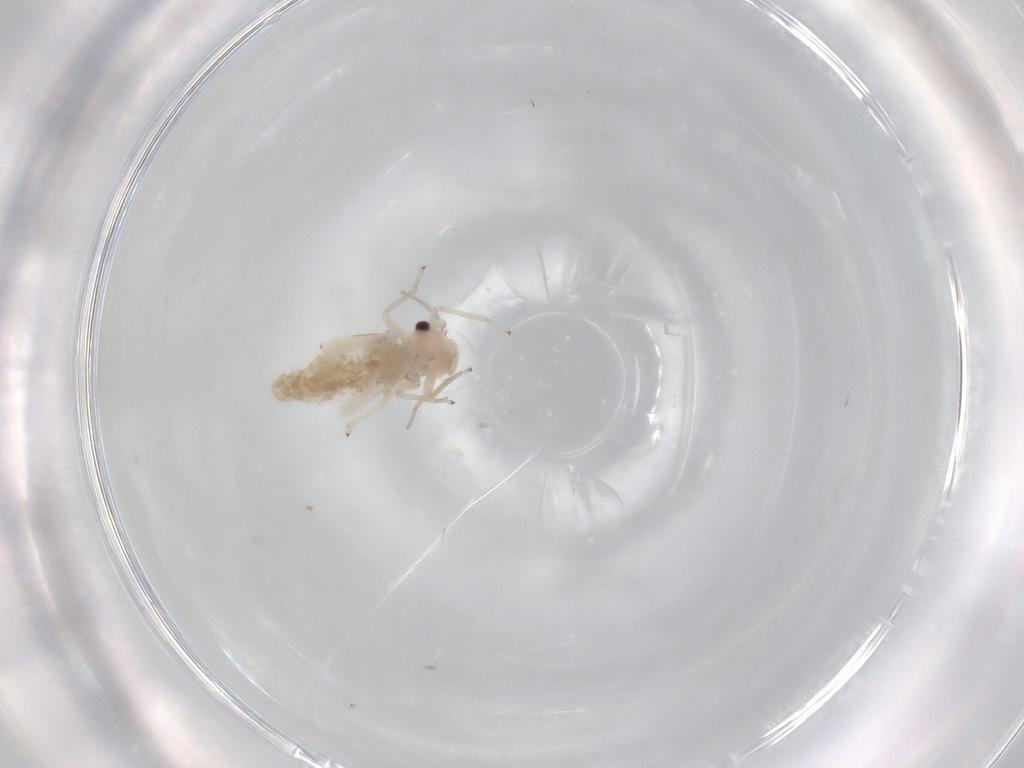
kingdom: Animalia
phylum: Arthropoda
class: Insecta
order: Psocodea
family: Caeciliusidae
